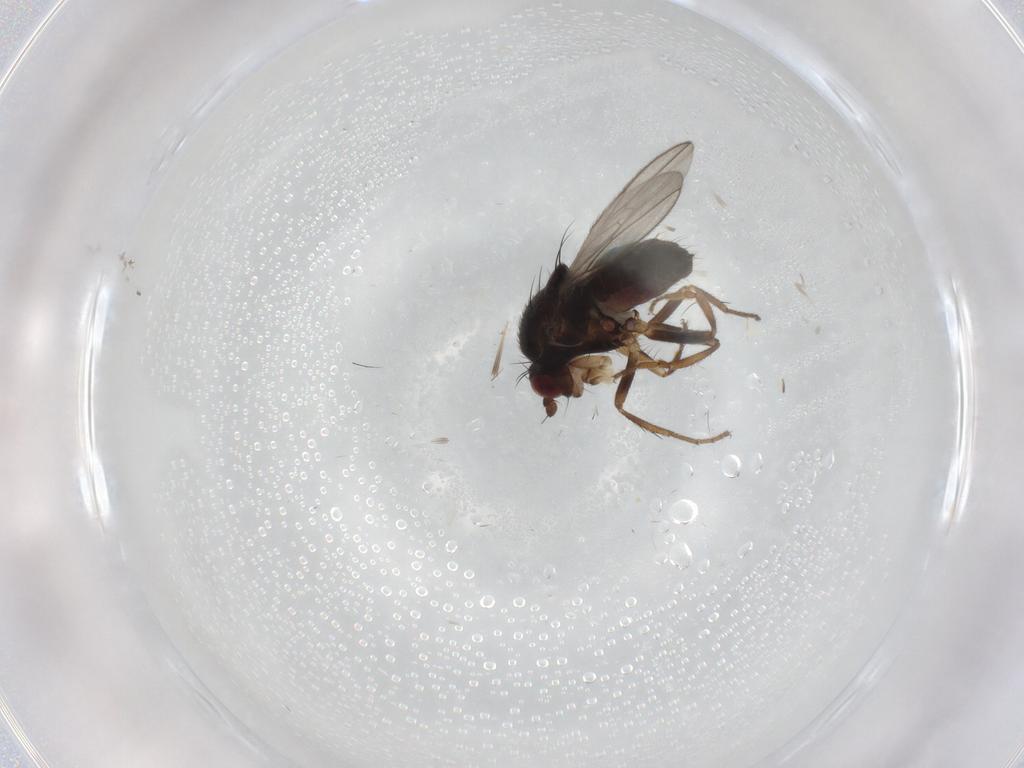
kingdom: Animalia
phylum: Arthropoda
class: Insecta
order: Diptera
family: Sphaeroceridae
